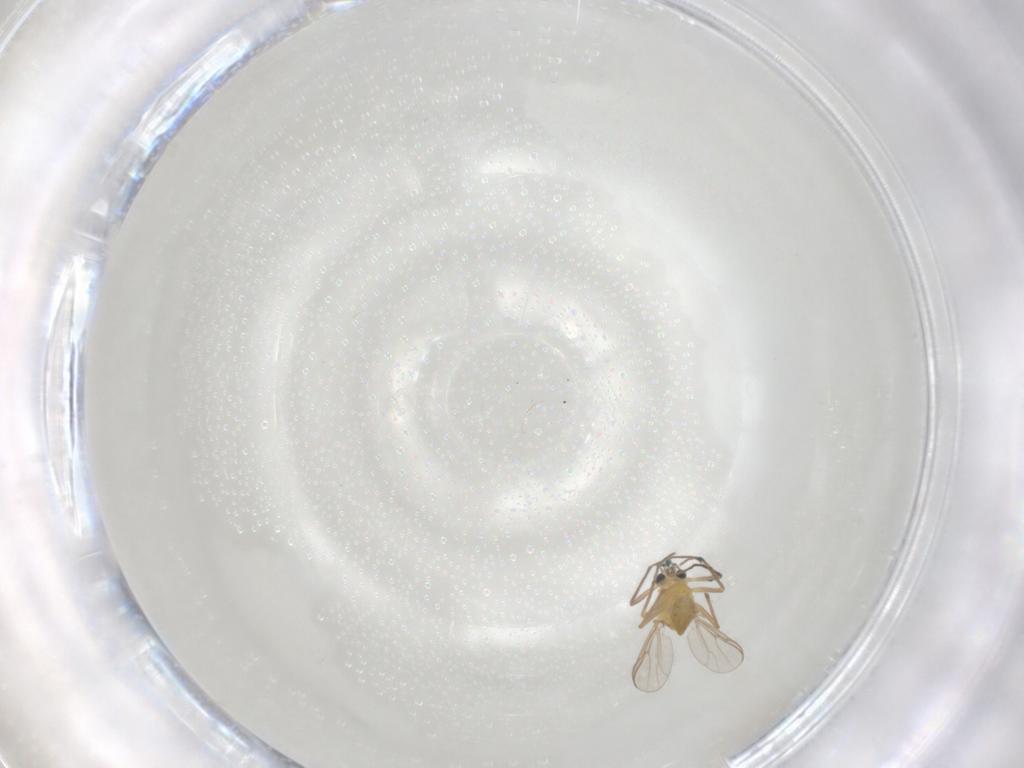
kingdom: Animalia
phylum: Arthropoda
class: Insecta
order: Diptera
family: Chironomidae
